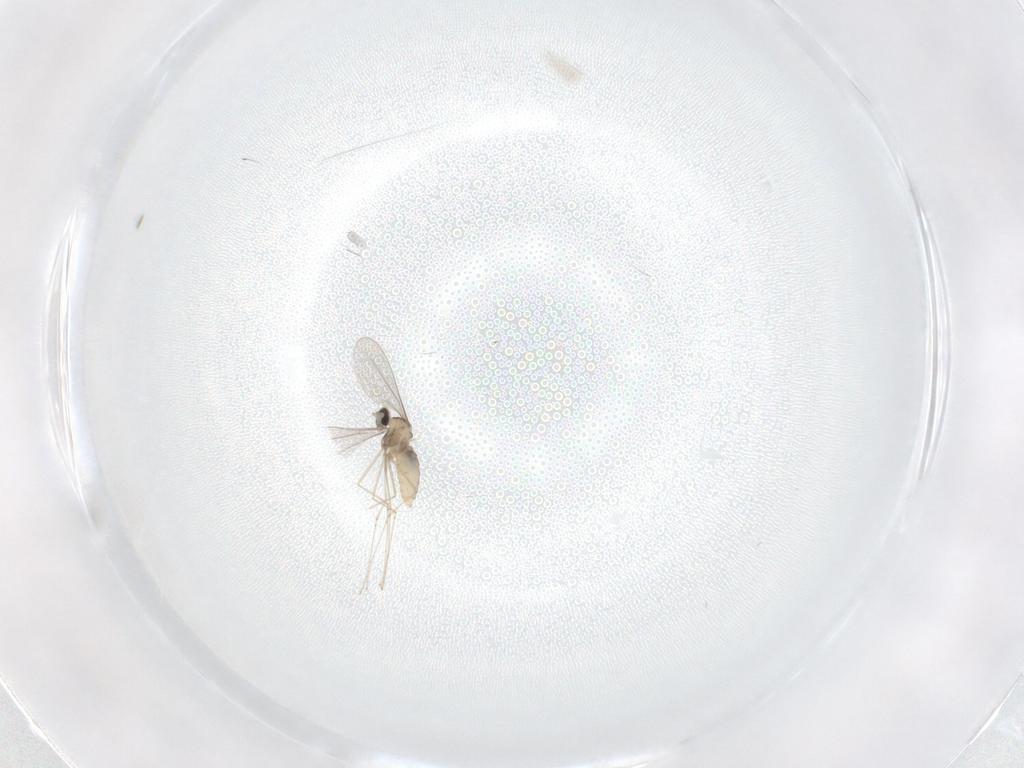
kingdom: Animalia
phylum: Arthropoda
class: Insecta
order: Diptera
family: Cecidomyiidae
